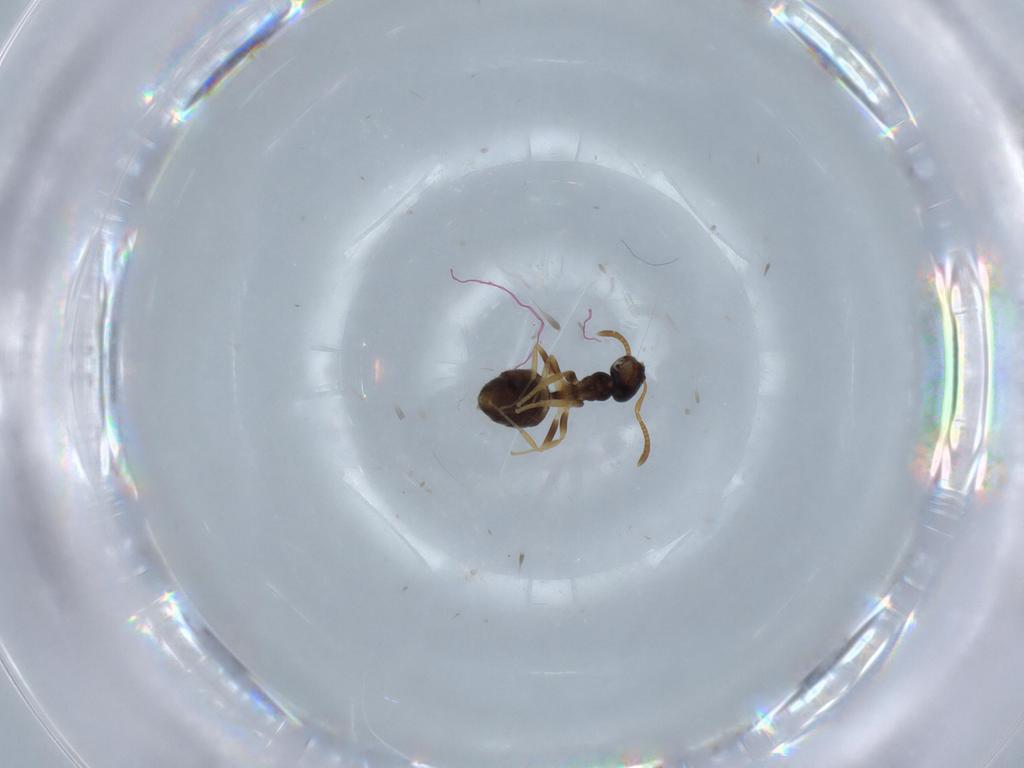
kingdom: Animalia
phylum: Arthropoda
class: Insecta
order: Hymenoptera
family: Formicidae
